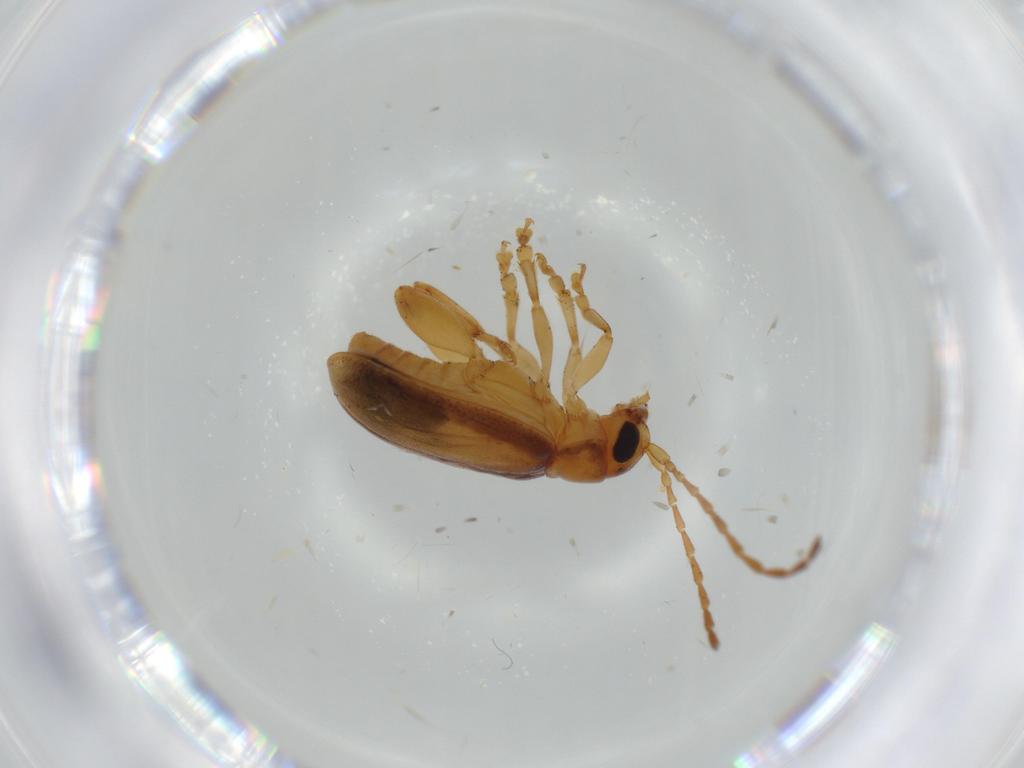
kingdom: Animalia
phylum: Arthropoda
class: Insecta
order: Coleoptera
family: Chrysomelidae
